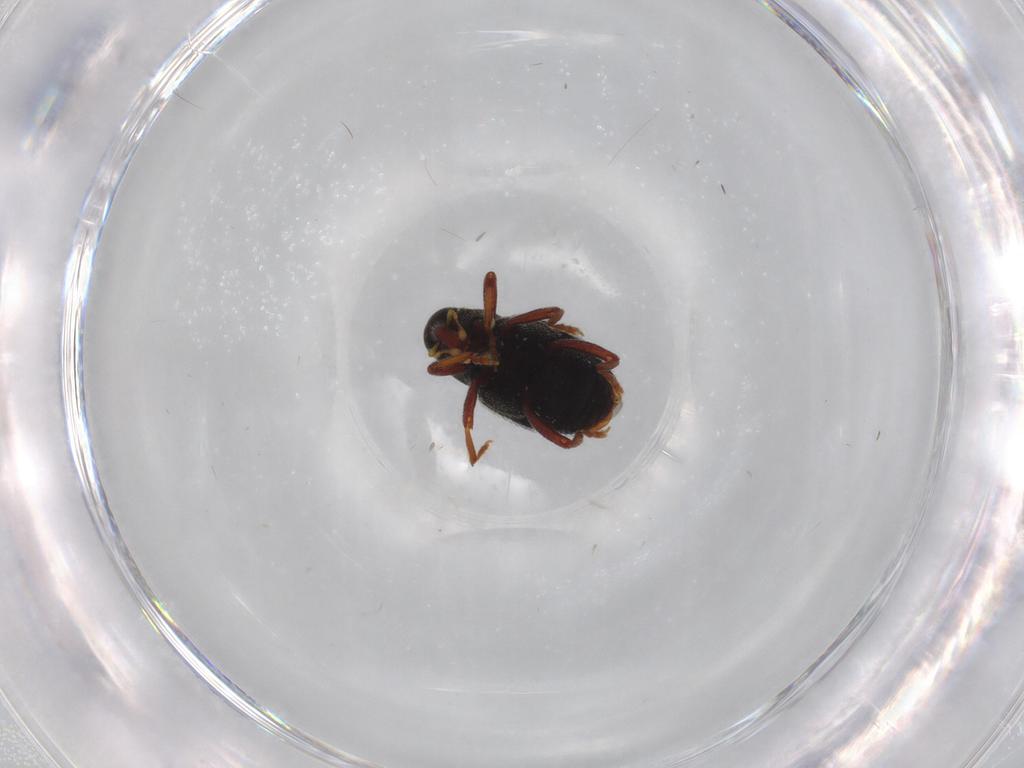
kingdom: Animalia
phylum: Arthropoda
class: Insecta
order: Coleoptera
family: Curculionidae
